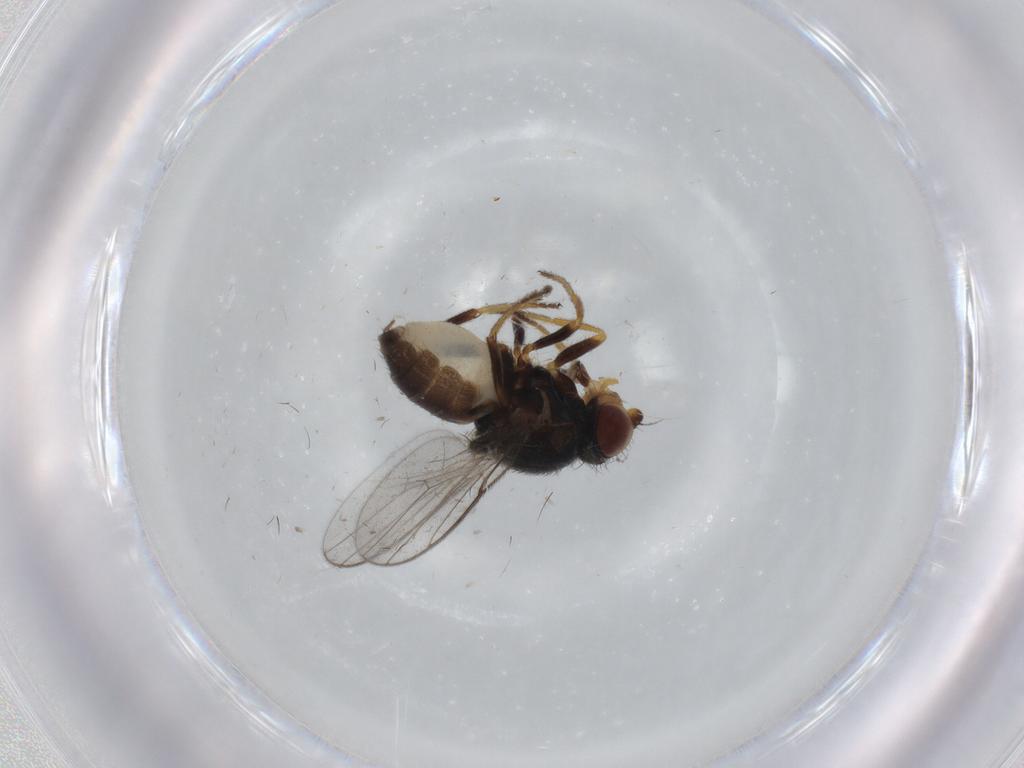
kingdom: Animalia
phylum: Arthropoda
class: Insecta
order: Diptera
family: Chloropidae
